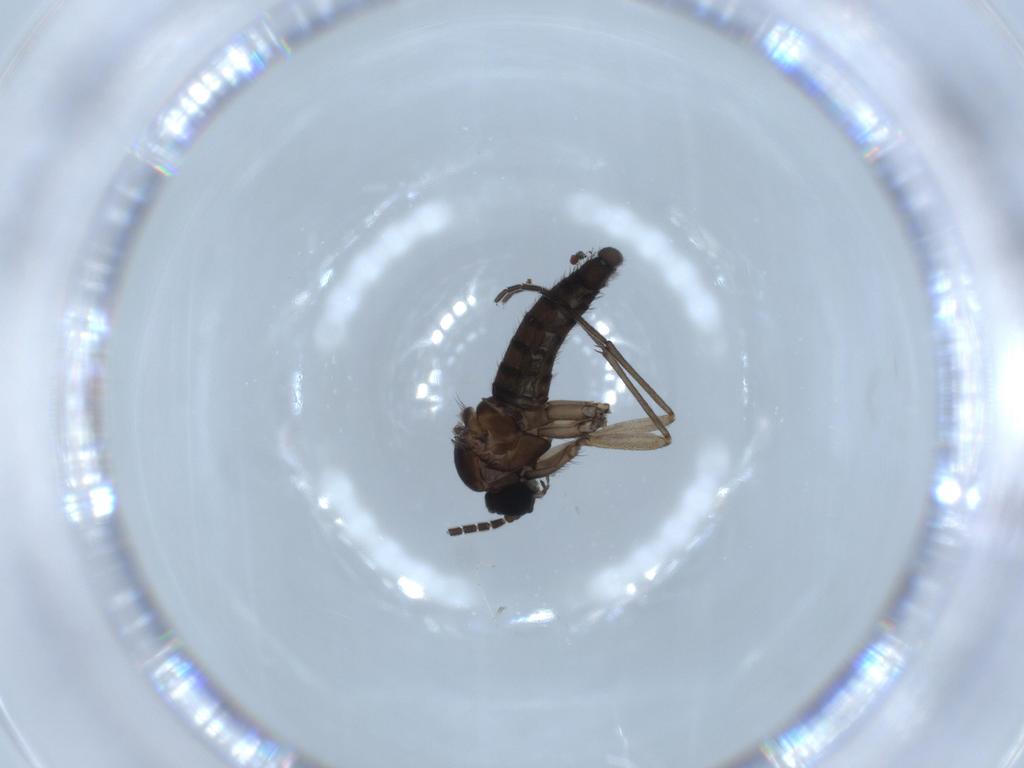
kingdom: Animalia
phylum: Arthropoda
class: Insecta
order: Diptera
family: Sciaridae
